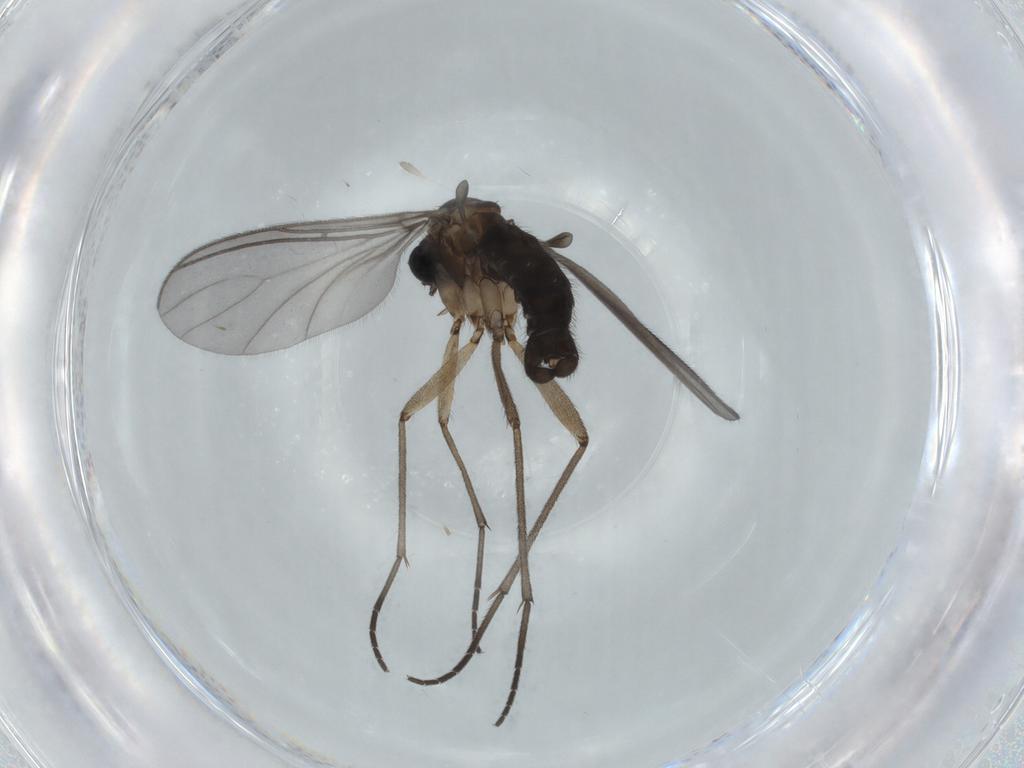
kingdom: Animalia
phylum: Arthropoda
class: Insecta
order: Diptera
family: Sciaridae
